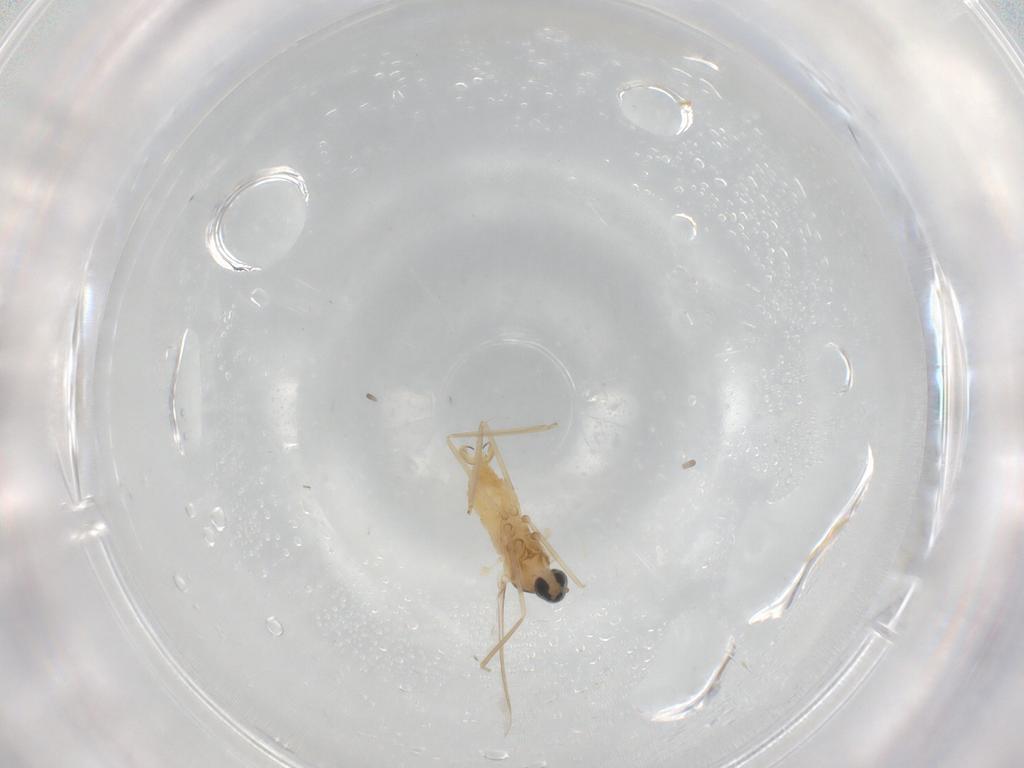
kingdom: Animalia
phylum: Arthropoda
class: Insecta
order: Diptera
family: Cecidomyiidae
